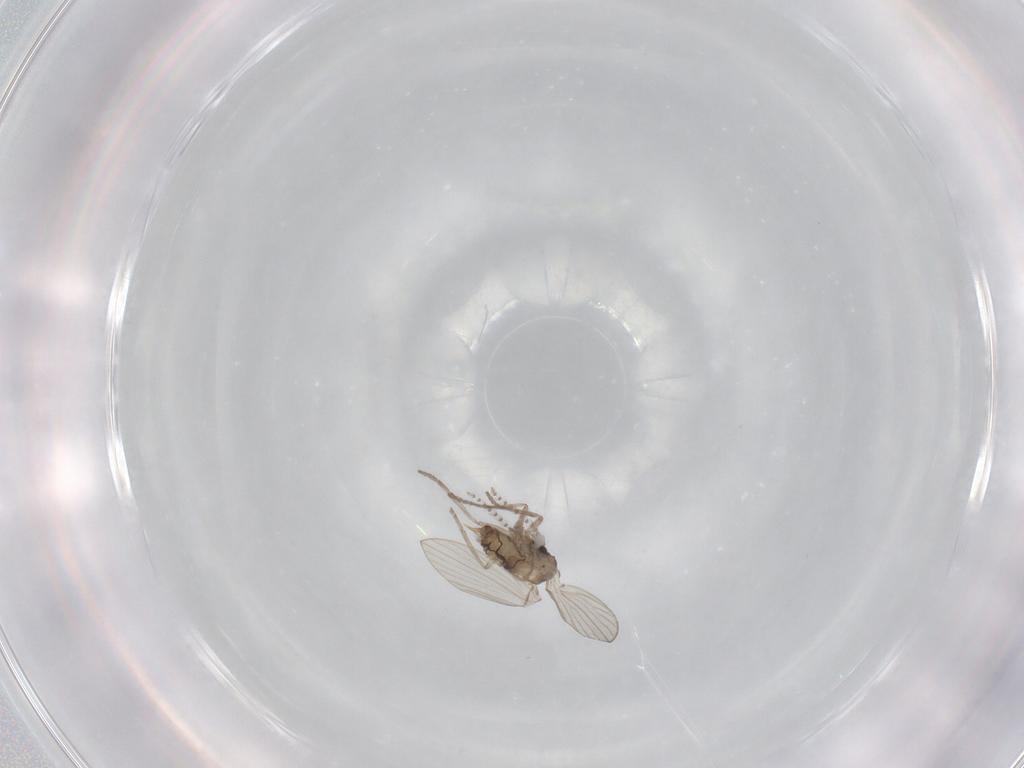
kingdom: Animalia
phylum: Arthropoda
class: Insecta
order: Diptera
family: Psychodidae
